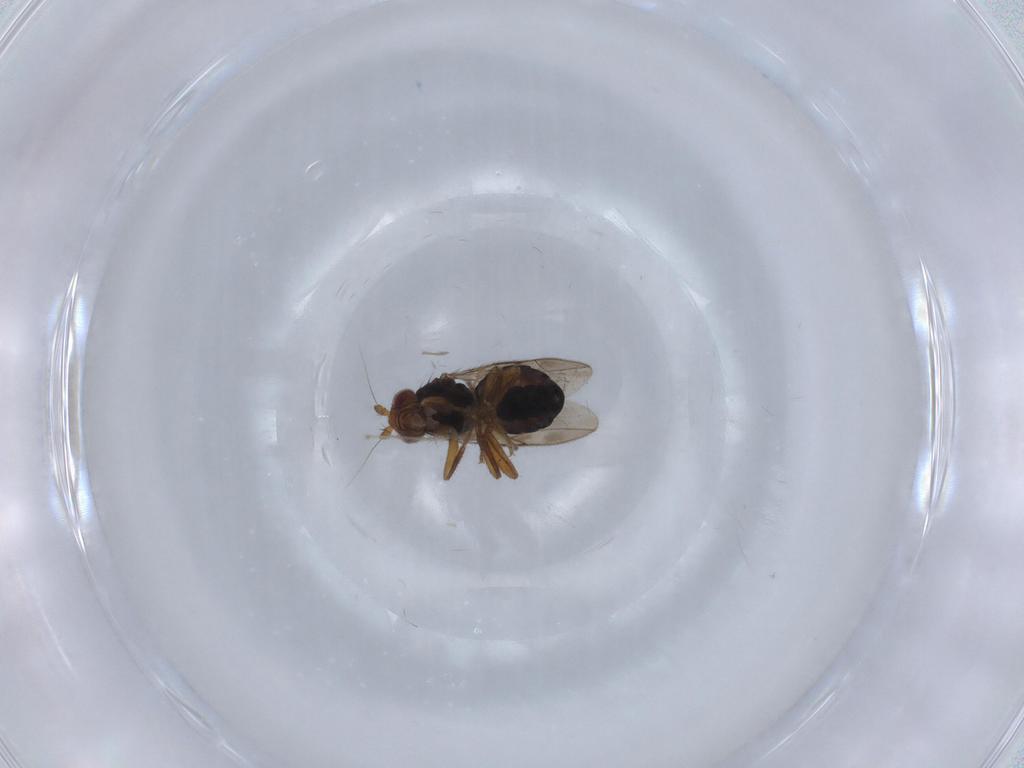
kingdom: Animalia
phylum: Arthropoda
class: Insecta
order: Diptera
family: Sphaeroceridae
